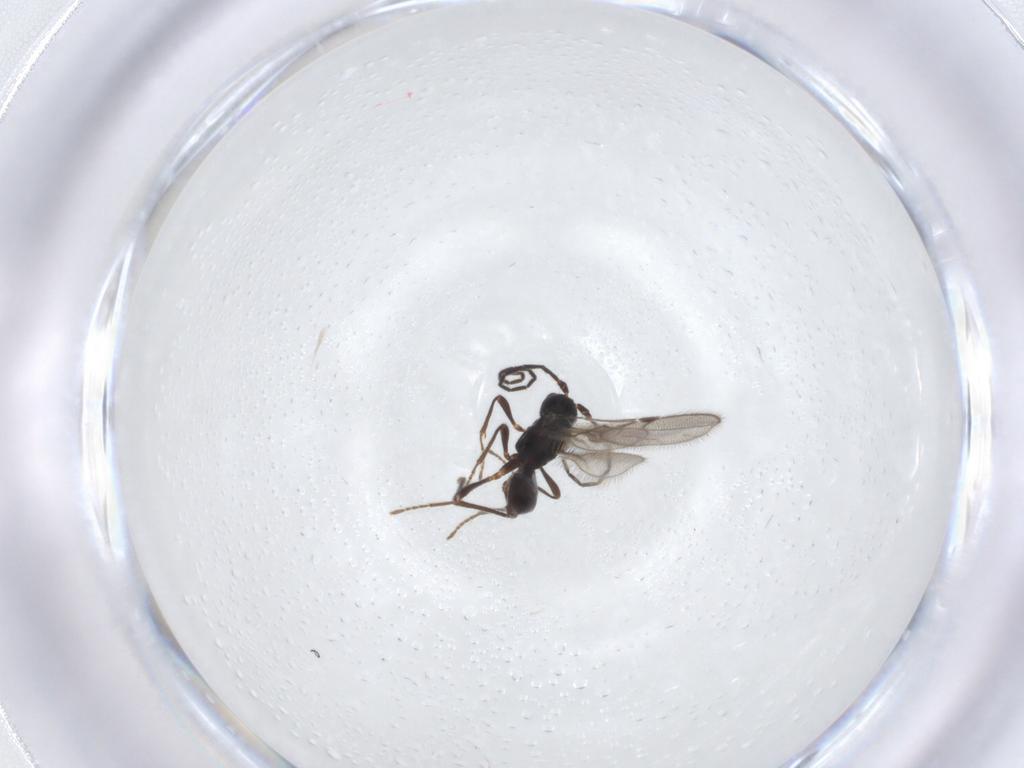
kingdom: Animalia
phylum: Arthropoda
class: Insecta
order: Hymenoptera
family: Braconidae
